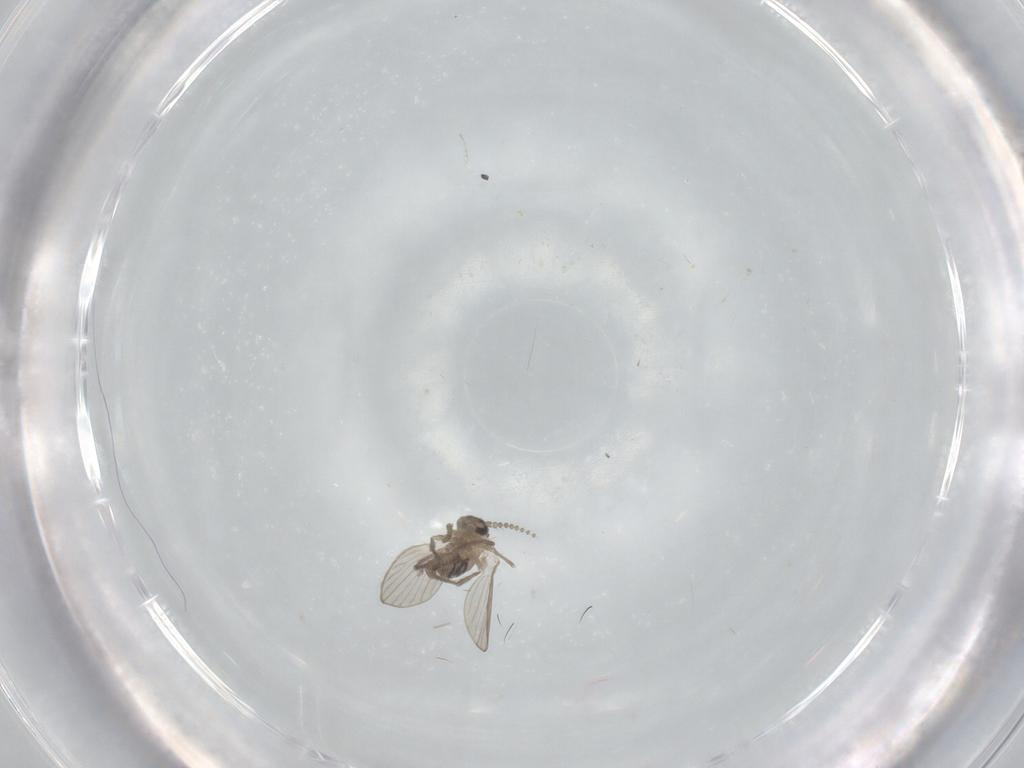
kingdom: Animalia
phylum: Arthropoda
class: Insecta
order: Diptera
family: Psychodidae
